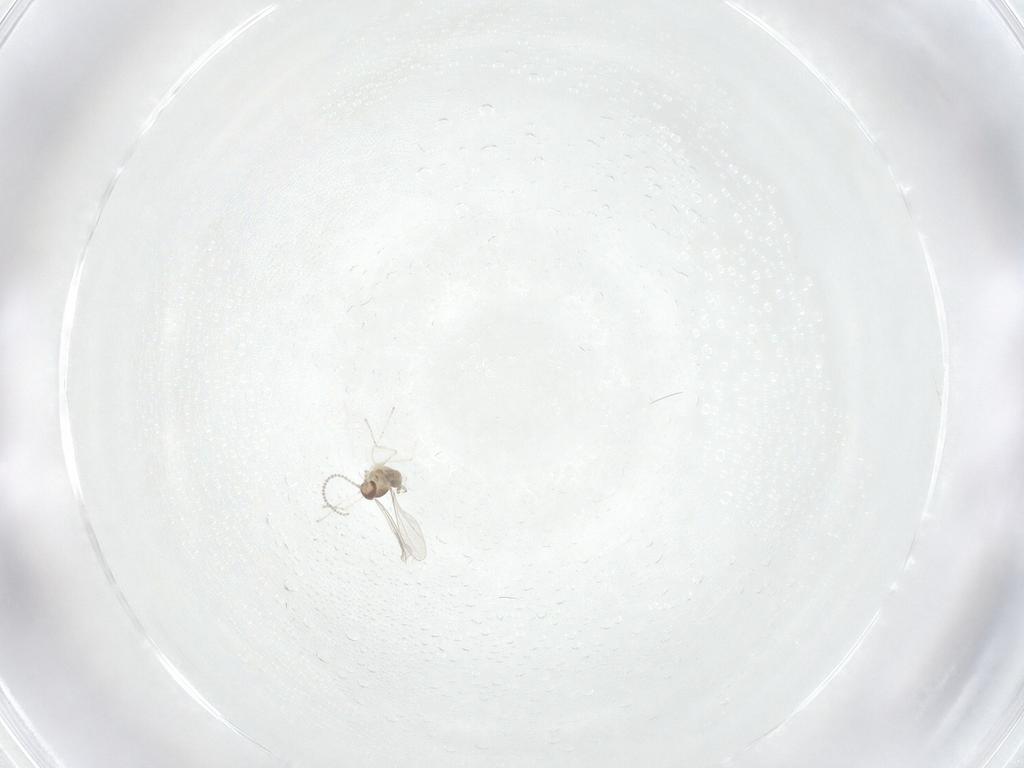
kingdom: Animalia
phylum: Arthropoda
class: Insecta
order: Diptera
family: Cecidomyiidae
